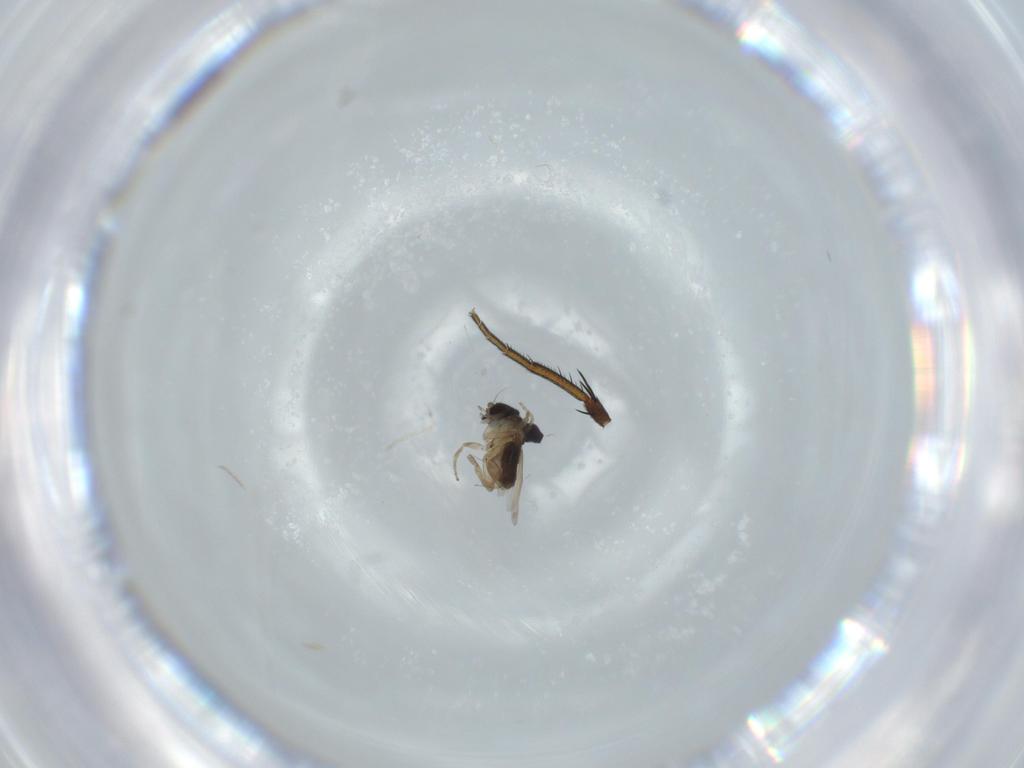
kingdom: Animalia
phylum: Arthropoda
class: Insecta
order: Diptera
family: Phoridae
